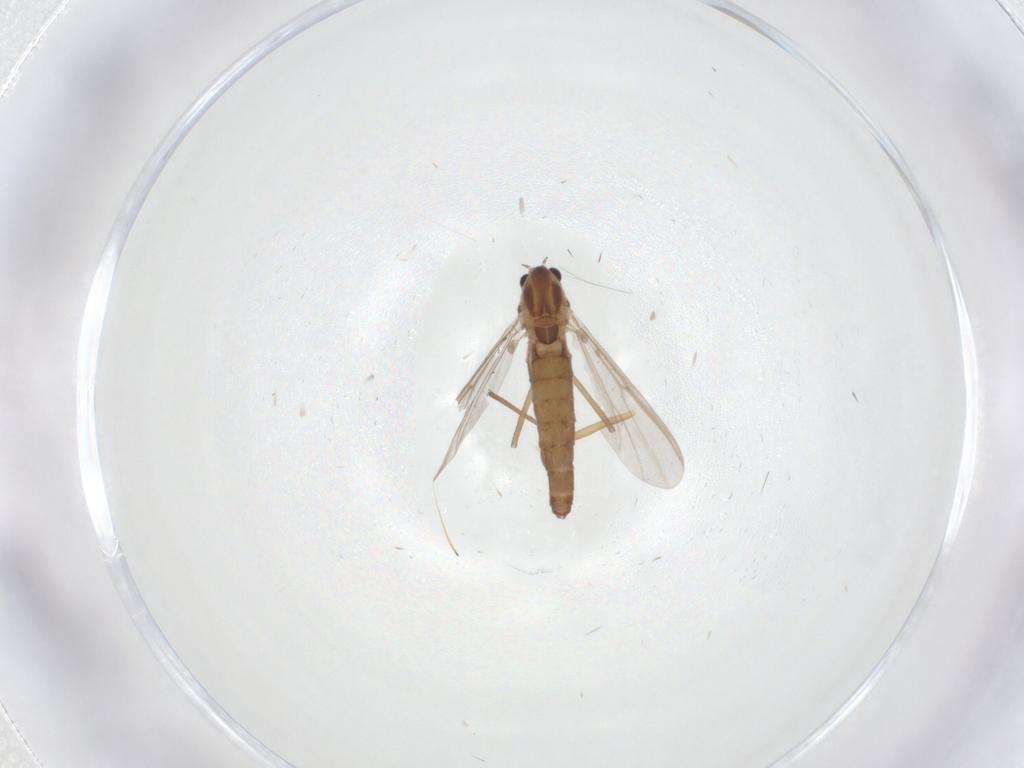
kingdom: Animalia
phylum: Arthropoda
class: Insecta
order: Diptera
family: Chironomidae
